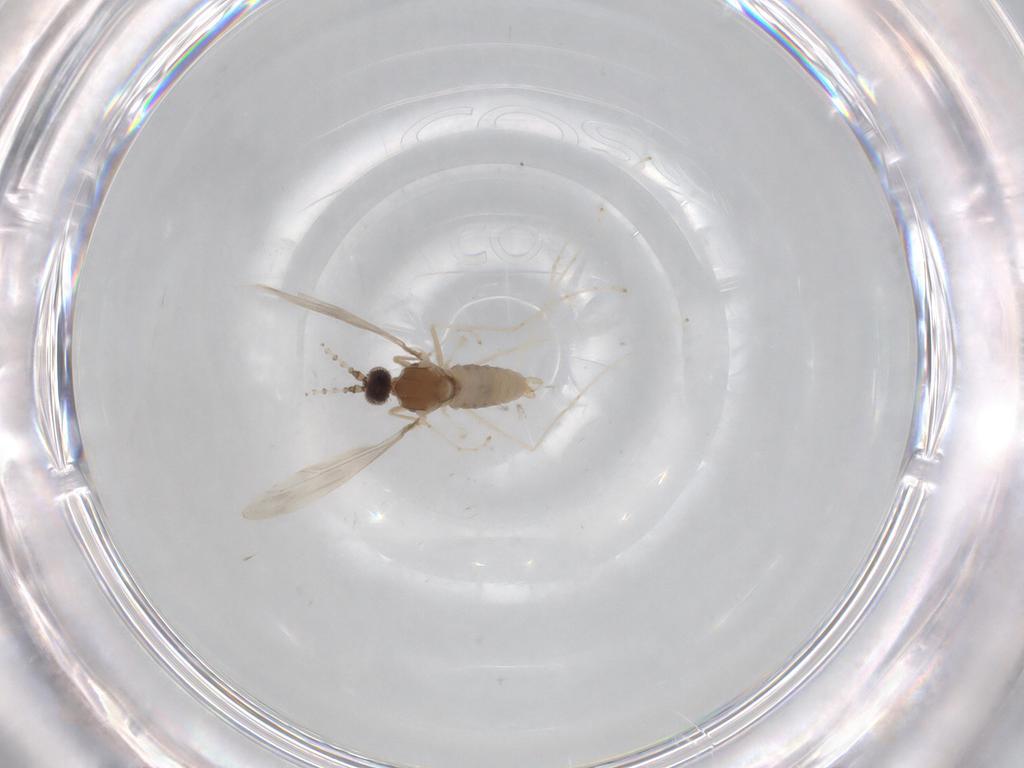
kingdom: Animalia
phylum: Arthropoda
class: Insecta
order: Diptera
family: Cecidomyiidae
